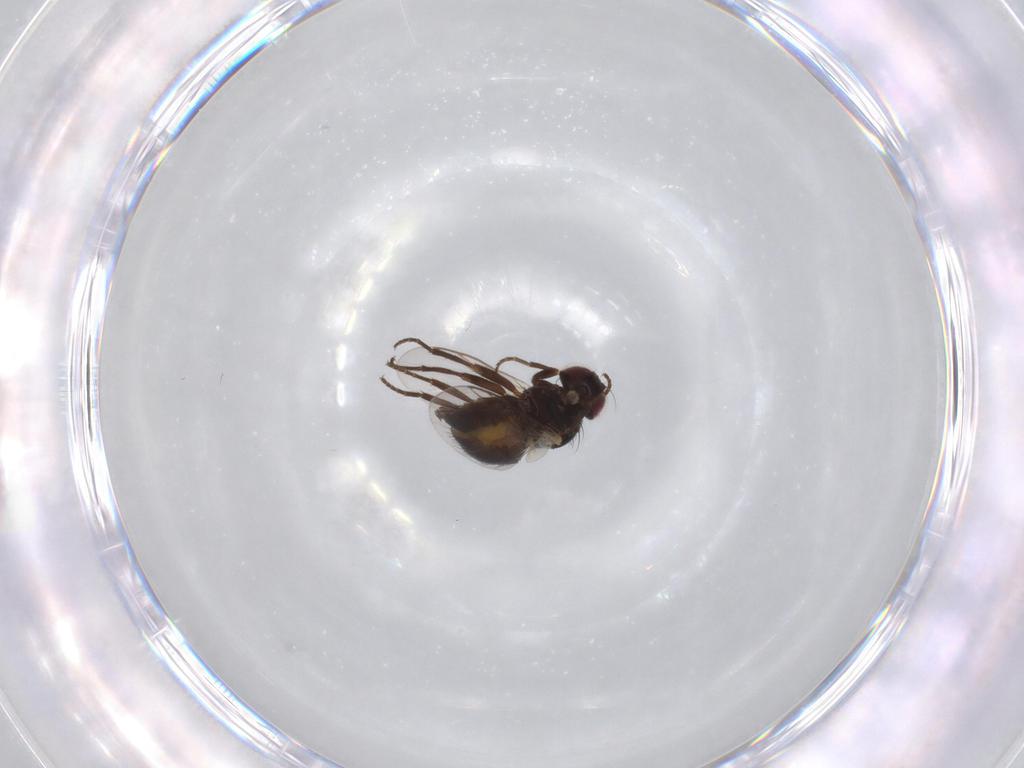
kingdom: Animalia
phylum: Arthropoda
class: Insecta
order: Diptera
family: Agromyzidae
